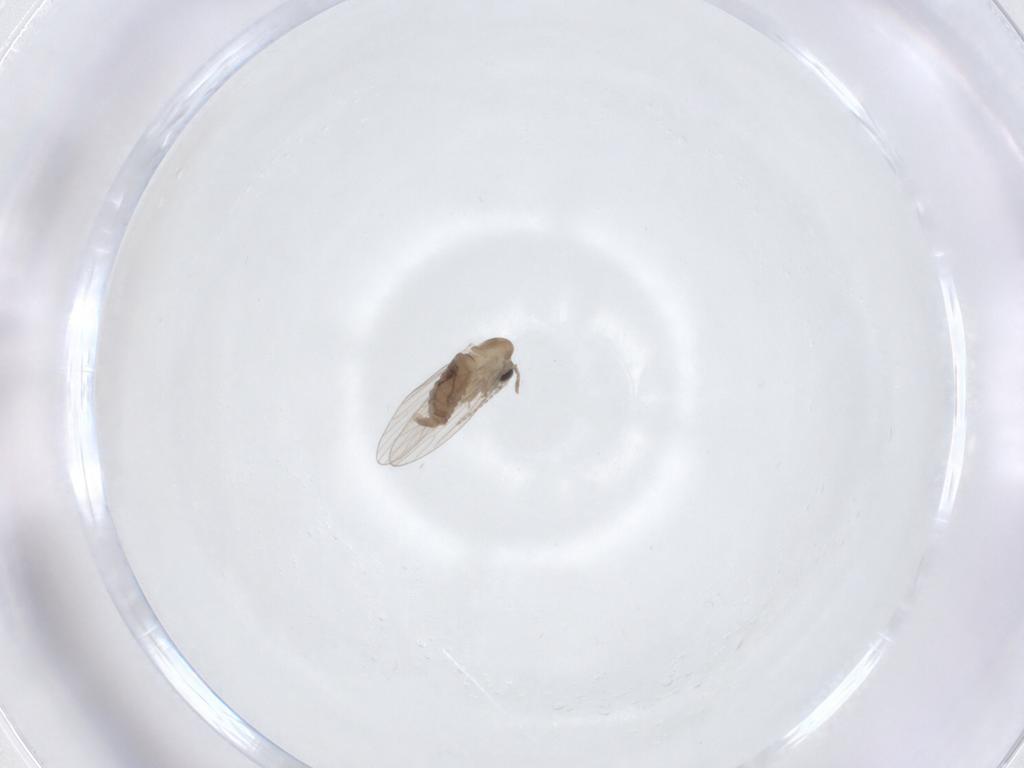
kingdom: Animalia
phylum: Arthropoda
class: Insecta
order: Diptera
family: Psychodidae
